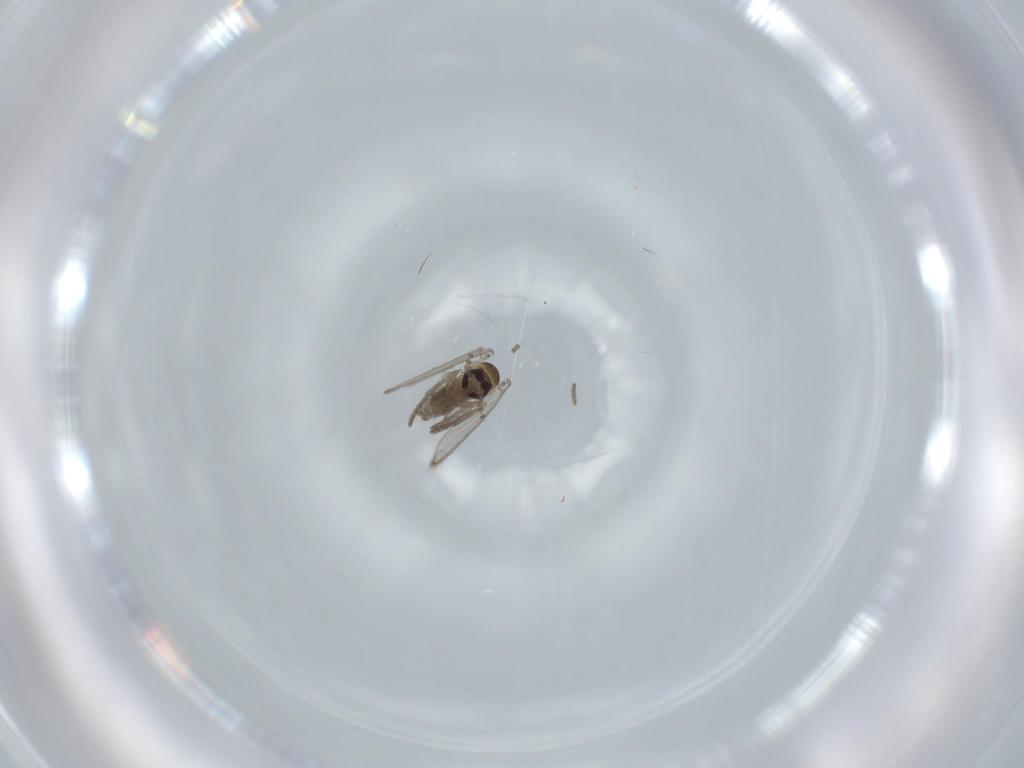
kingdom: Animalia
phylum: Arthropoda
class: Insecta
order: Diptera
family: Psychodidae
